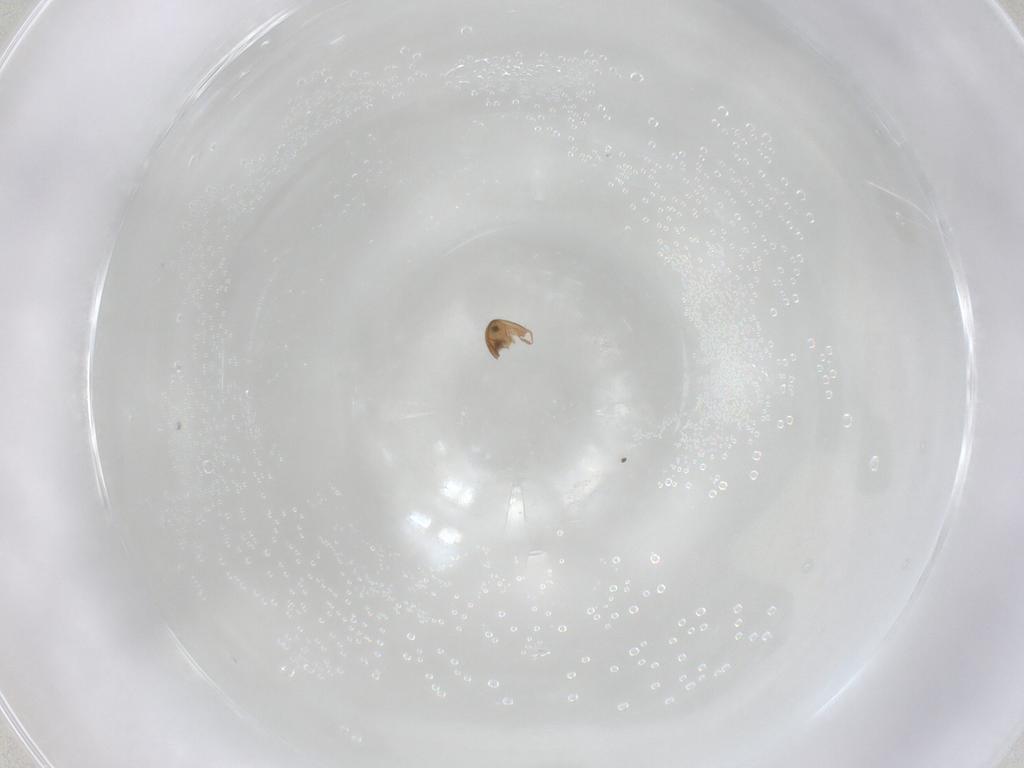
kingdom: Animalia
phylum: Arthropoda
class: Arachnida
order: Sarcoptiformes
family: Scheloribatidae
